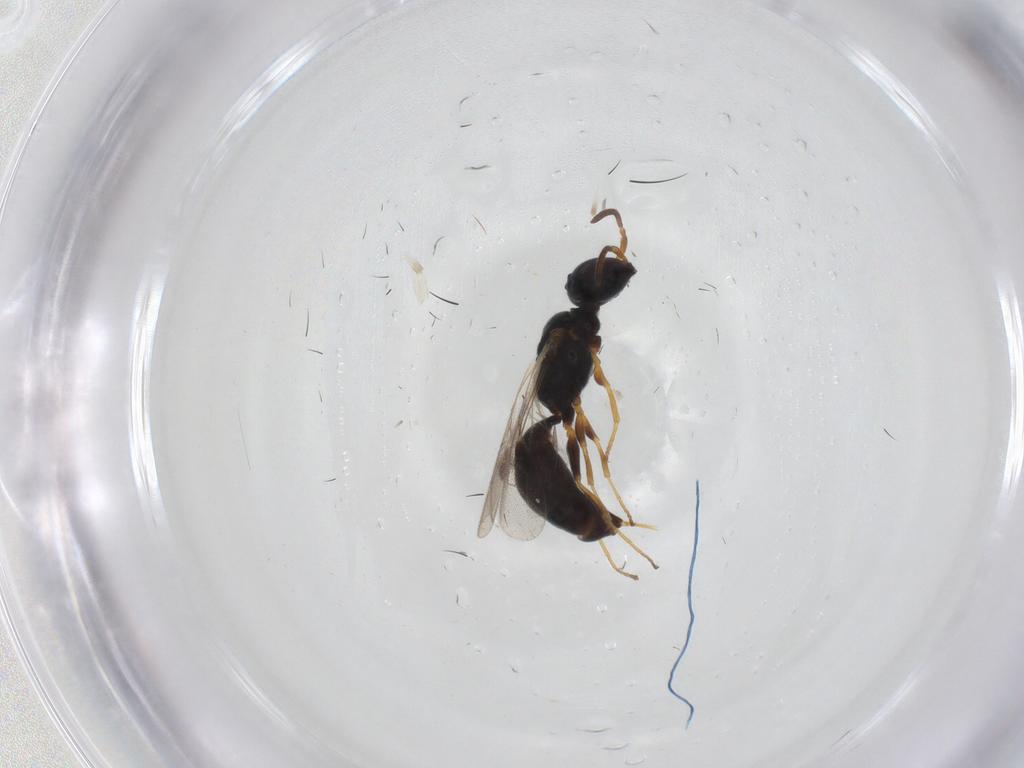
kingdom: Animalia
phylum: Arthropoda
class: Insecta
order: Hymenoptera
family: Pemphredonidae
